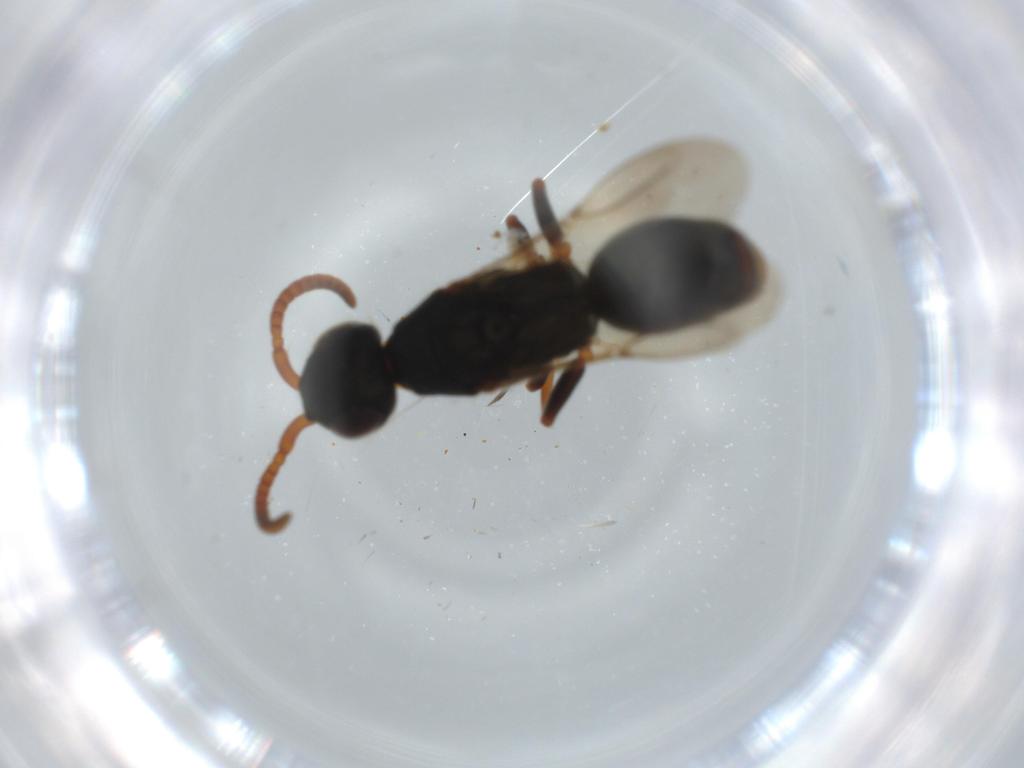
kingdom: Animalia
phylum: Arthropoda
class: Insecta
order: Hymenoptera
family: Bethylidae
